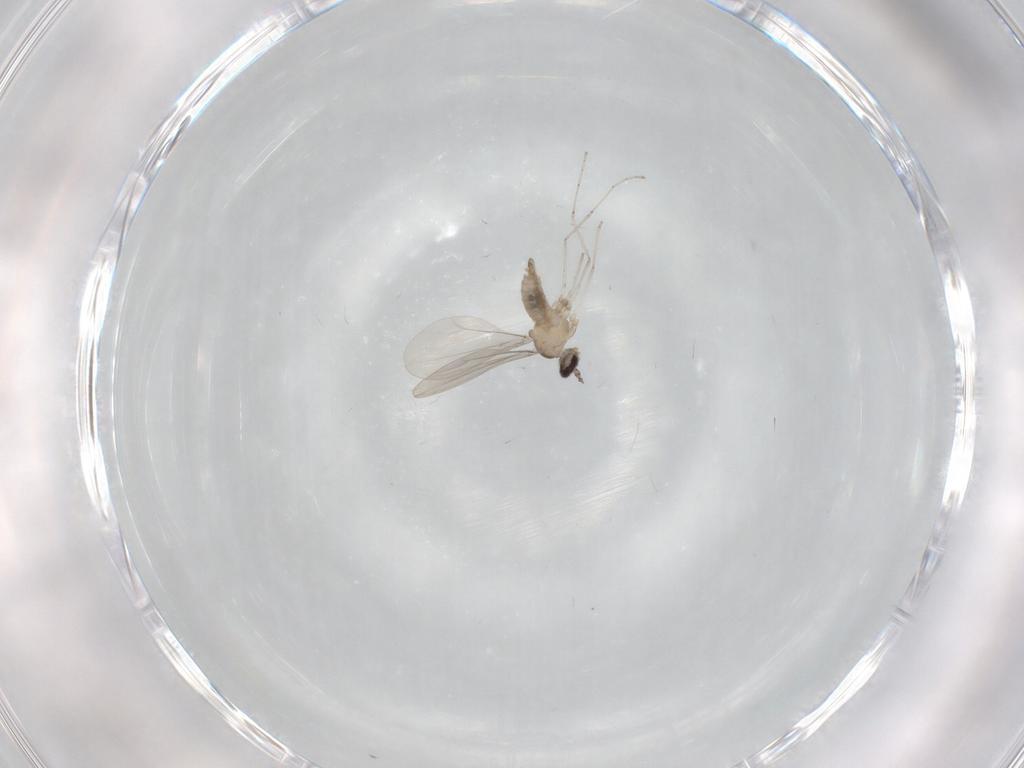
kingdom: Animalia
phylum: Arthropoda
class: Insecta
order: Diptera
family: Cecidomyiidae
